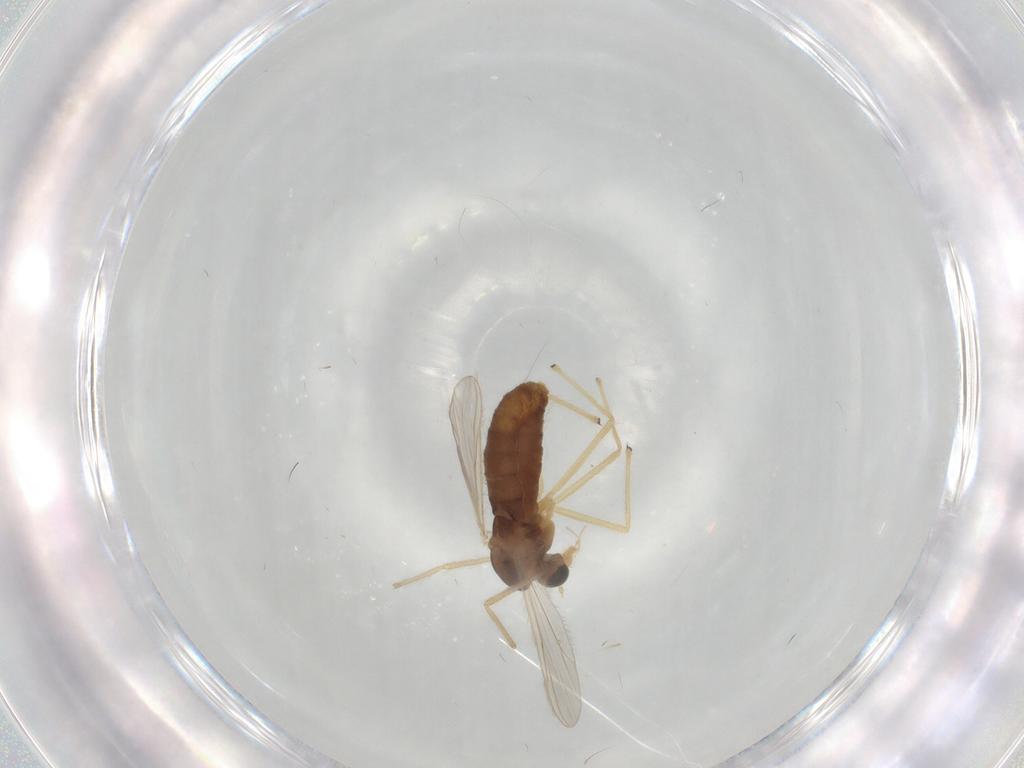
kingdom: Animalia
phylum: Arthropoda
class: Insecta
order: Diptera
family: Chironomidae
